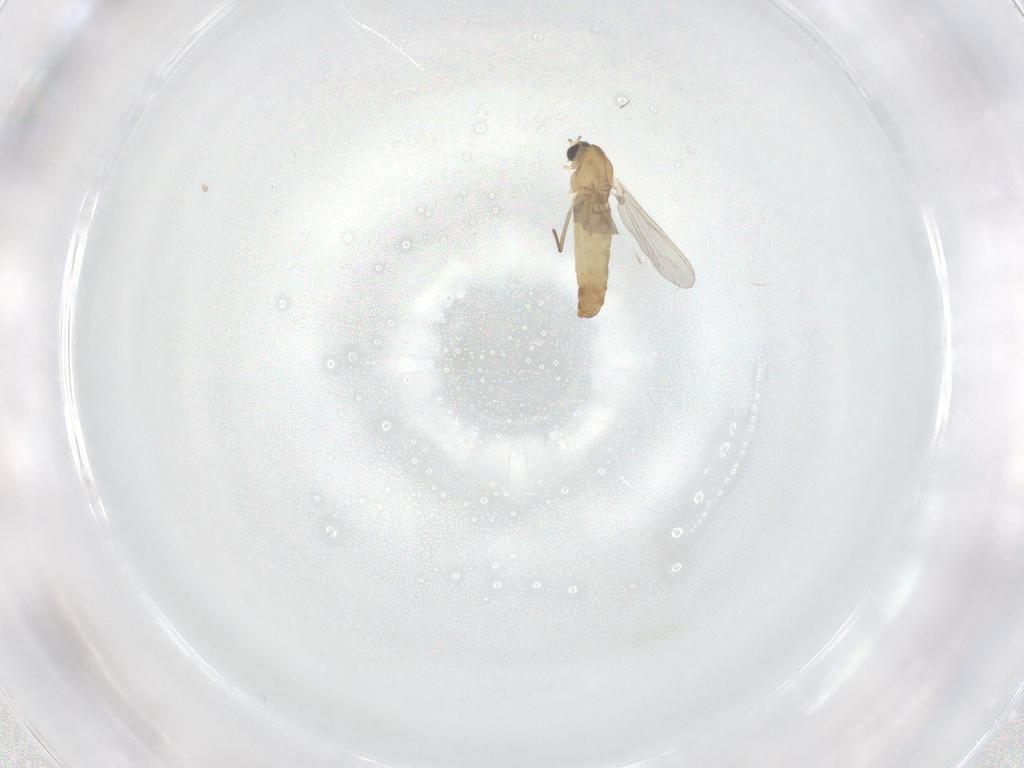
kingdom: Animalia
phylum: Arthropoda
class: Insecta
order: Diptera
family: Chironomidae
